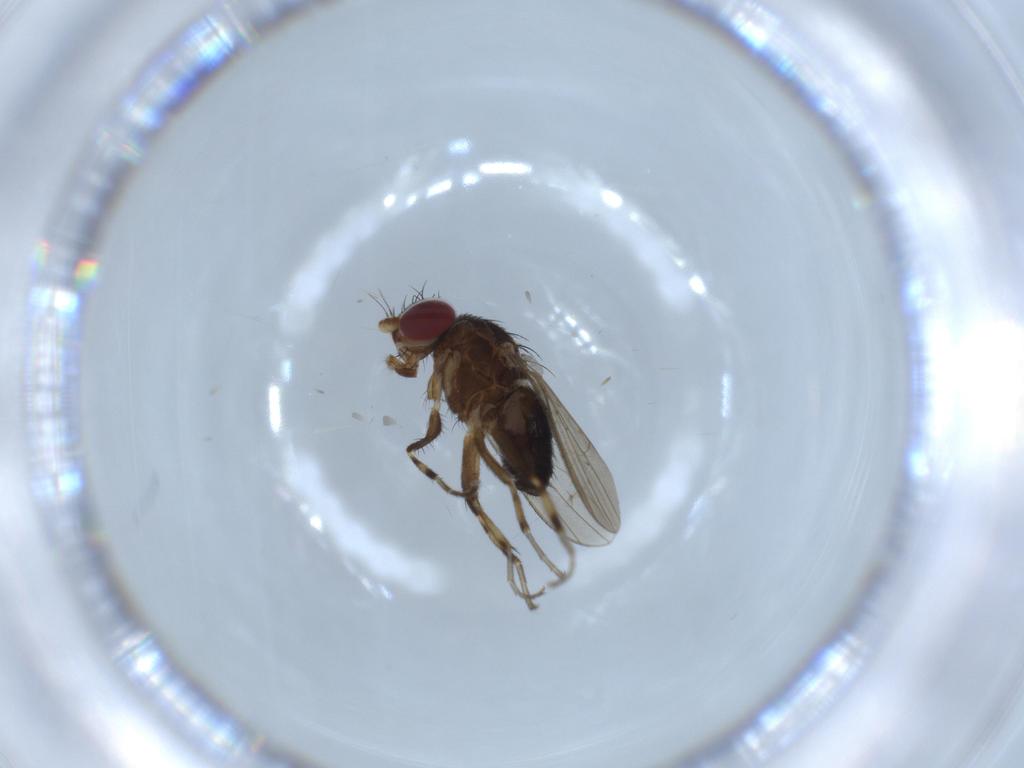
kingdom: Animalia
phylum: Arthropoda
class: Insecta
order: Diptera
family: Heleomyzidae
